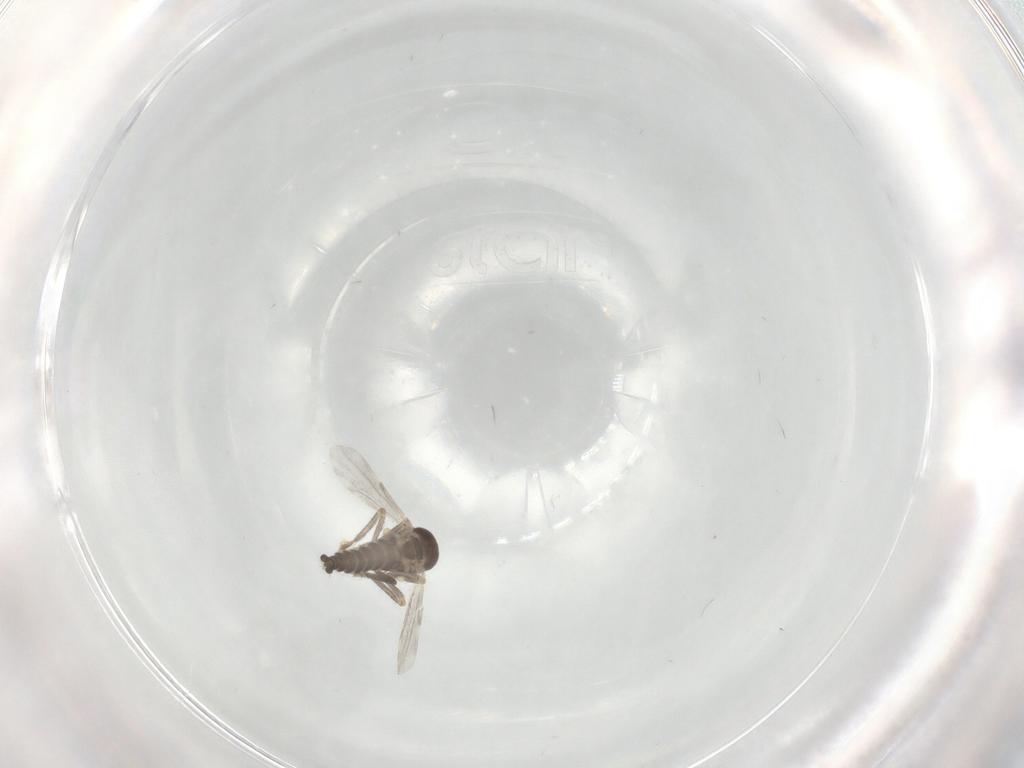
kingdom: Animalia
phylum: Arthropoda
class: Insecta
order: Diptera
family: Ceratopogonidae
